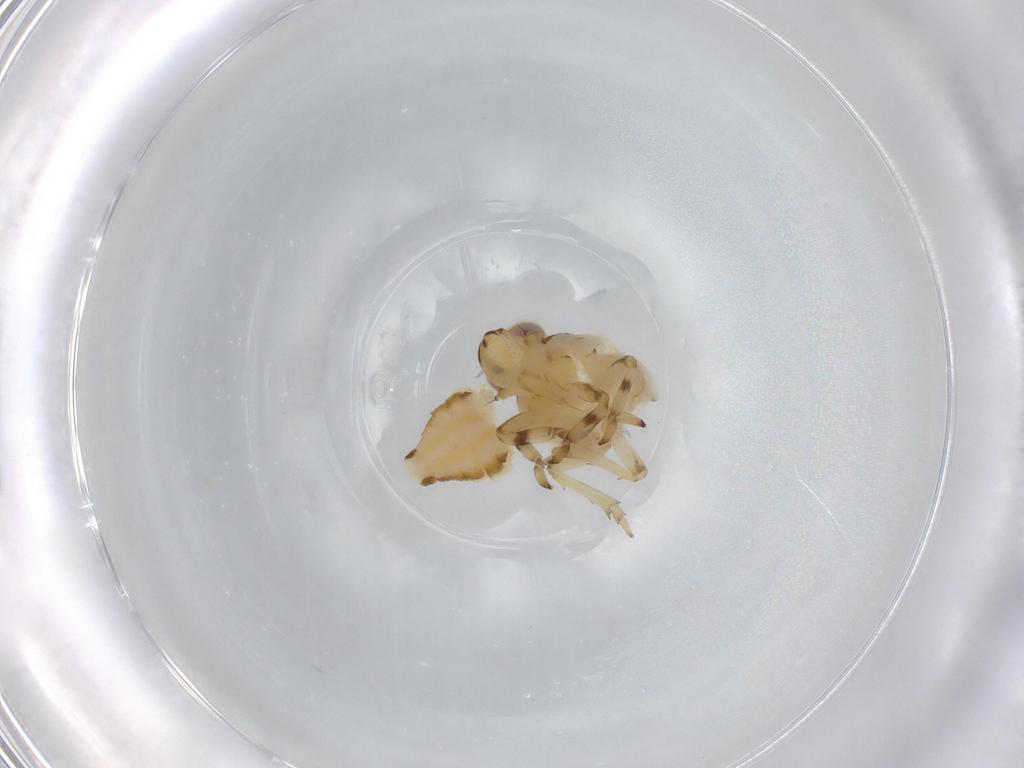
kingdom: Animalia
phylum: Arthropoda
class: Insecta
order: Hemiptera
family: Issidae
